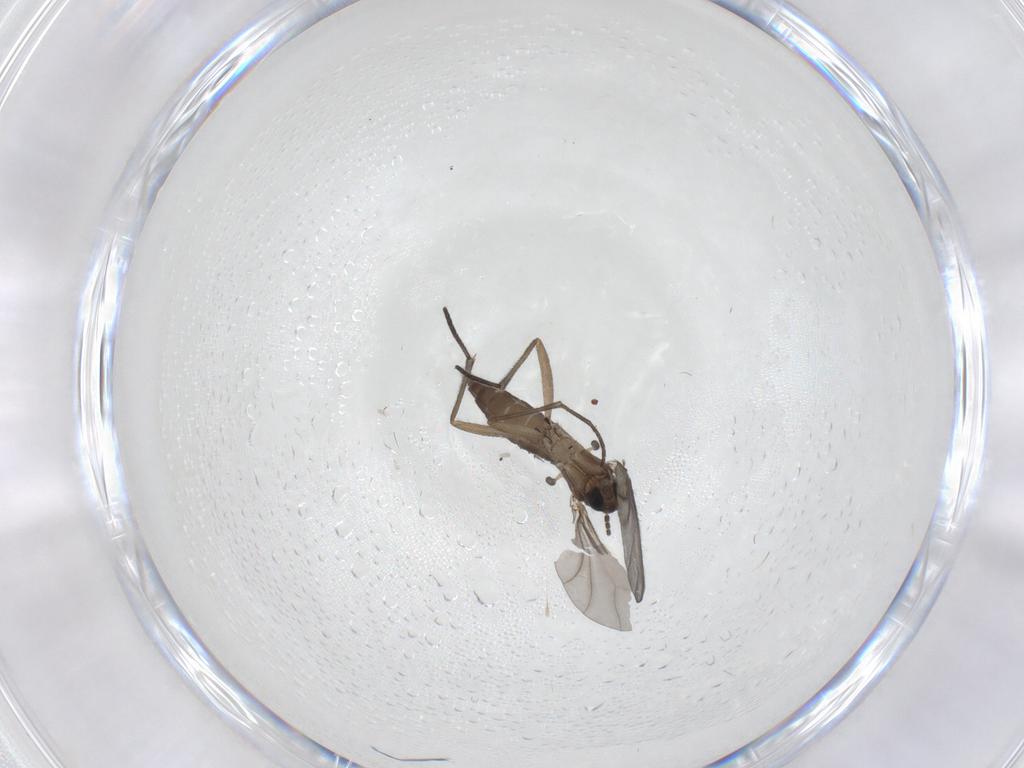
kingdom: Animalia
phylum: Arthropoda
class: Insecta
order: Diptera
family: Sciaridae
